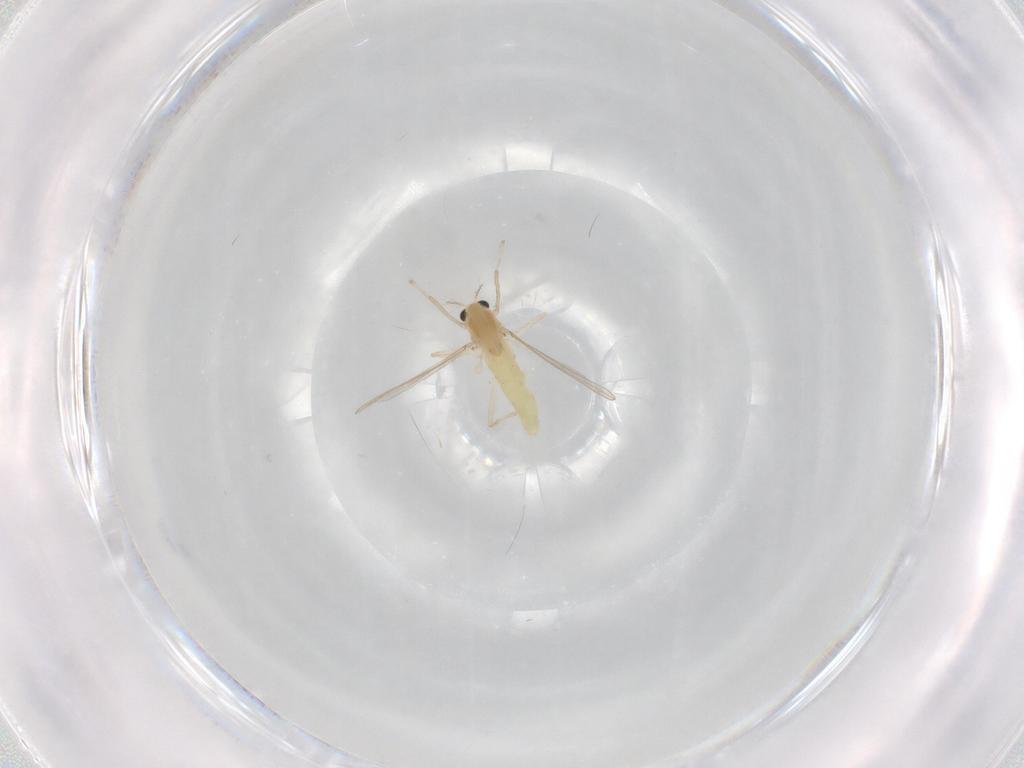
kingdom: Animalia
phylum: Arthropoda
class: Insecta
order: Diptera
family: Chironomidae
